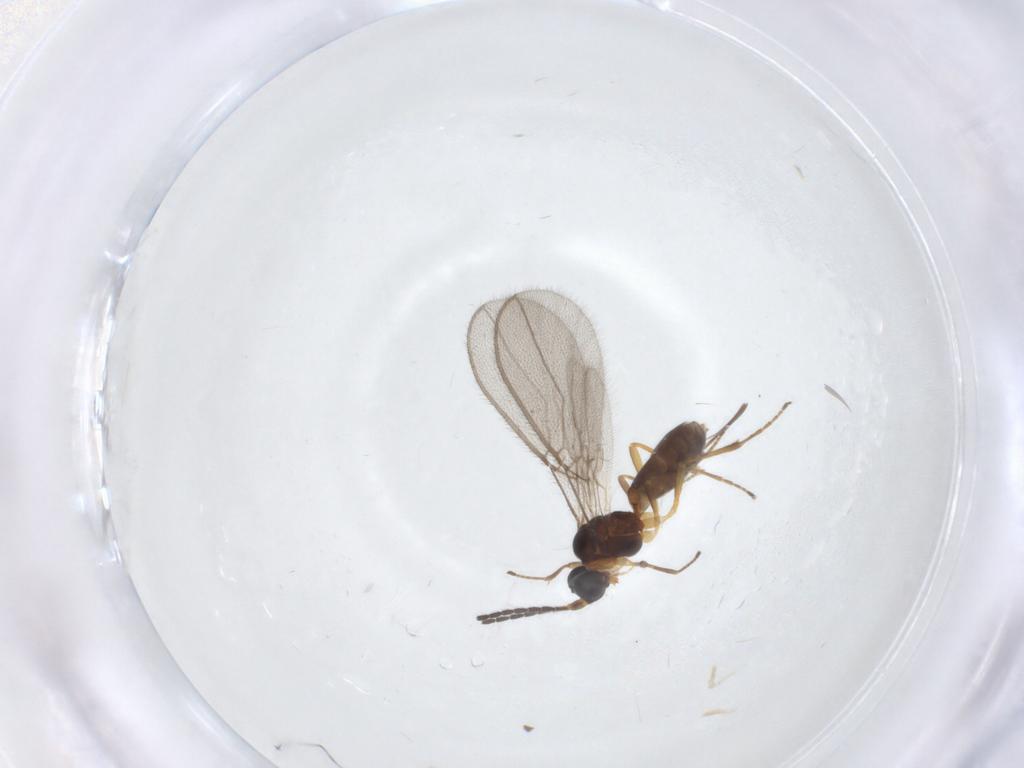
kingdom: Animalia
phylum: Arthropoda
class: Insecta
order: Hymenoptera
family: Braconidae
